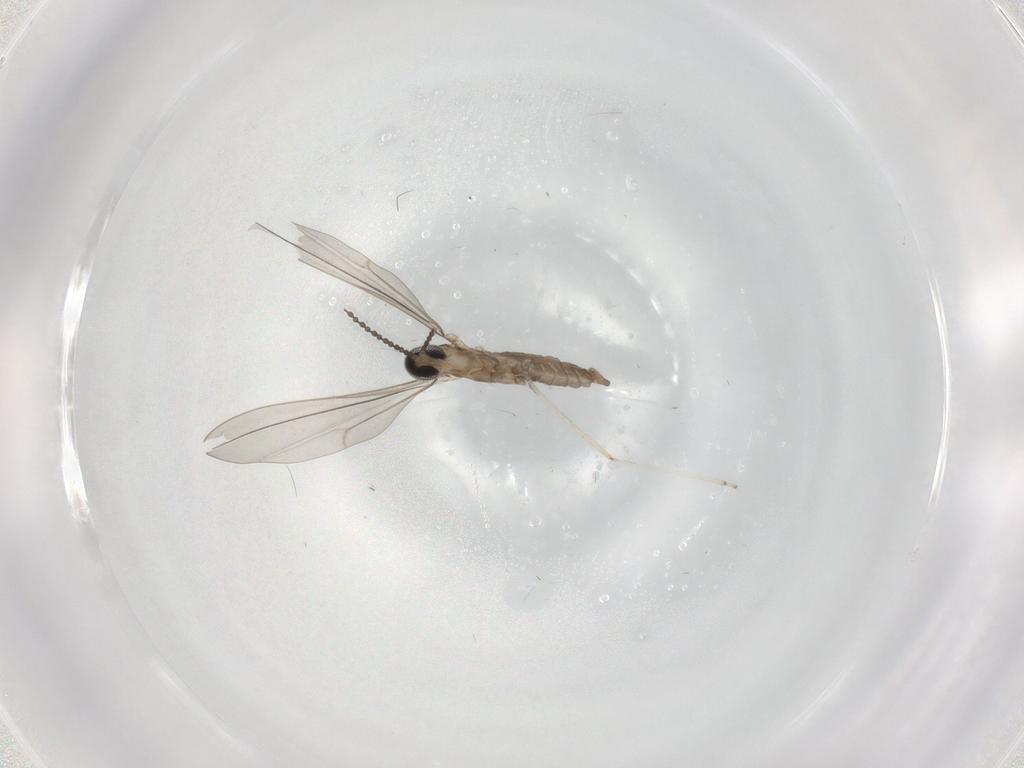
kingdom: Animalia
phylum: Arthropoda
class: Insecta
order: Diptera
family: Cecidomyiidae
